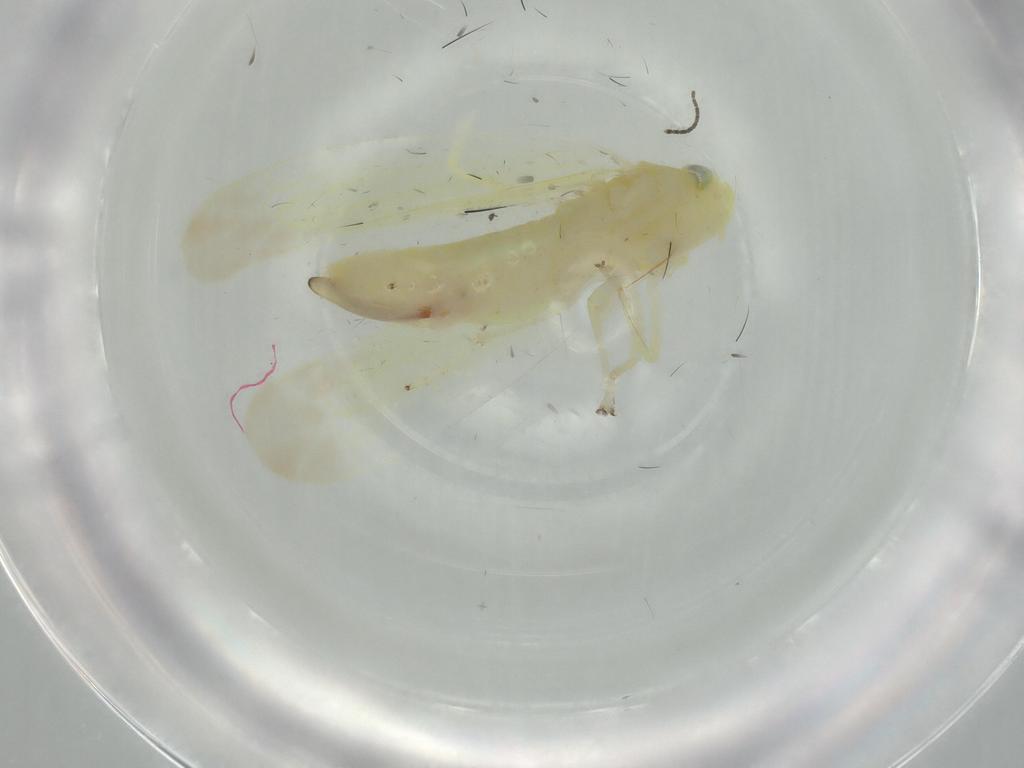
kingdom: Animalia
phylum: Arthropoda
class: Insecta
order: Hemiptera
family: Cicadellidae
